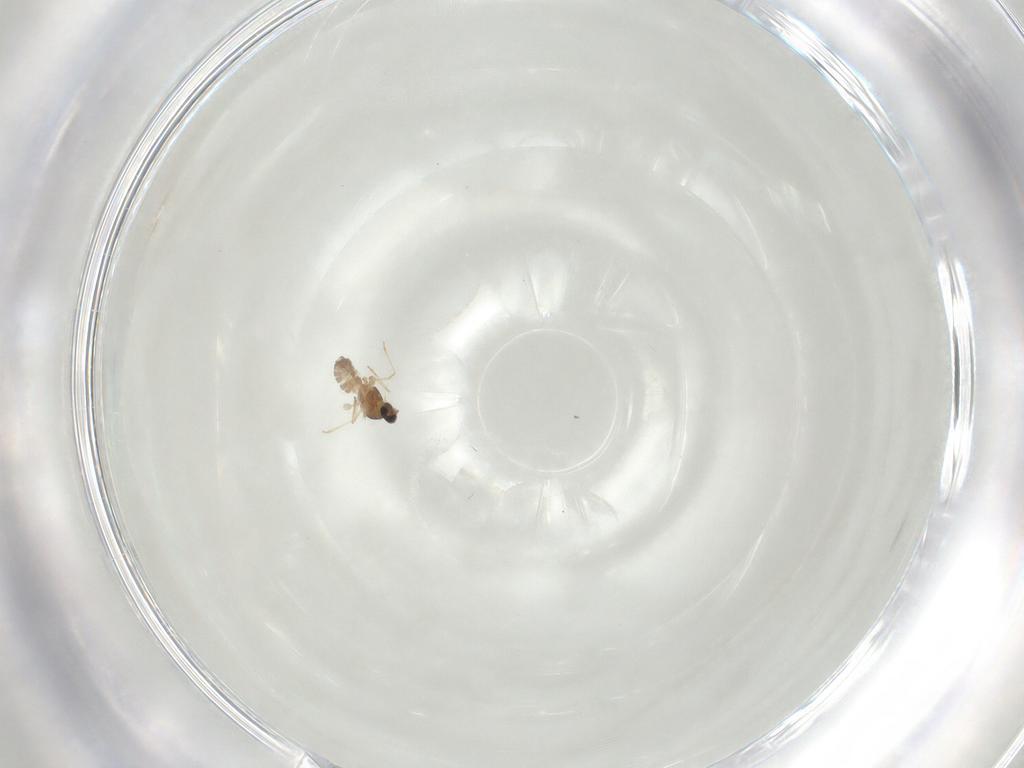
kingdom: Animalia
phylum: Arthropoda
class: Insecta
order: Diptera
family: Cecidomyiidae
